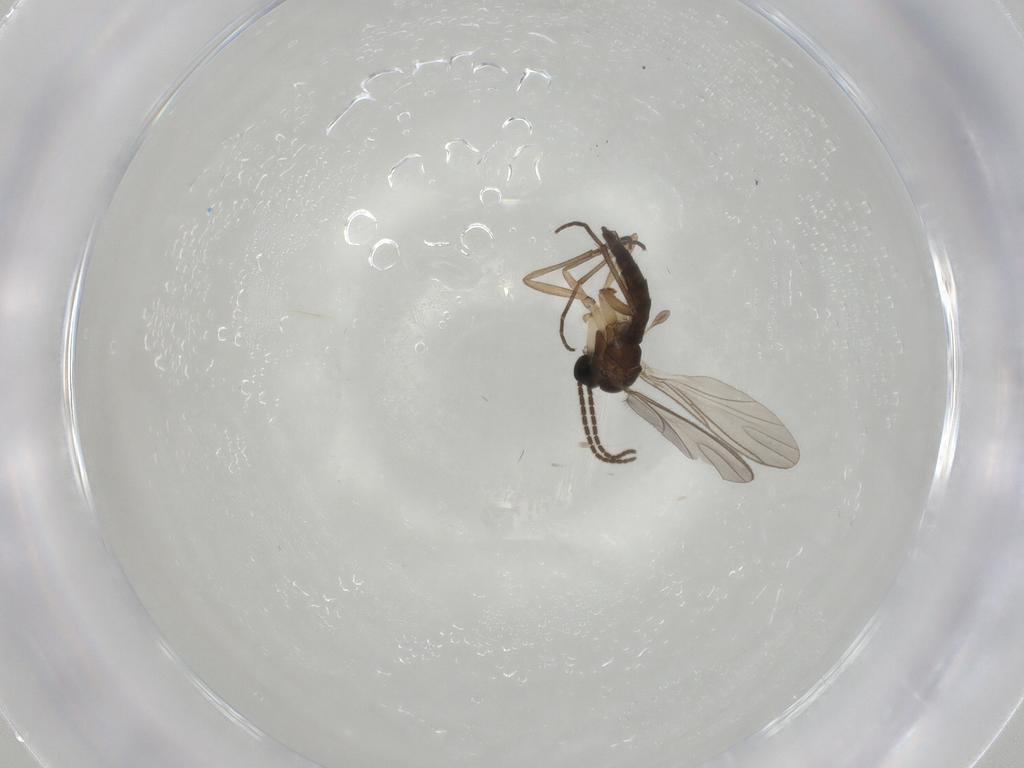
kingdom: Animalia
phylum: Arthropoda
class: Insecta
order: Diptera
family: Sciaridae
